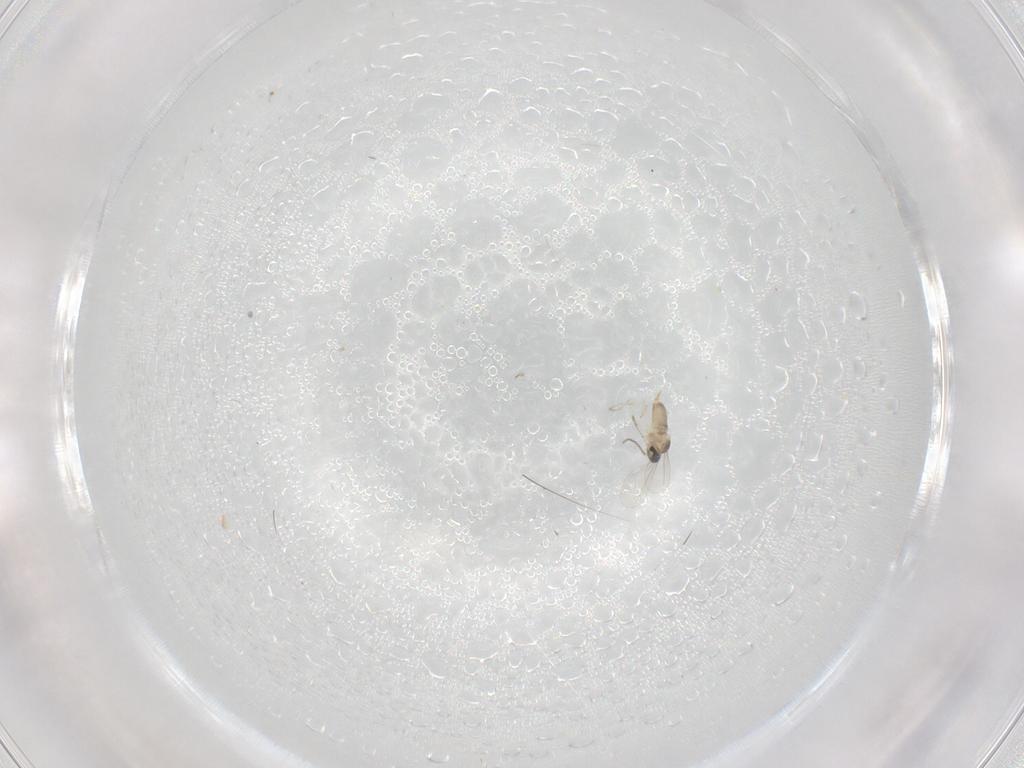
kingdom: Animalia
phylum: Arthropoda
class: Insecta
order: Diptera
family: Cecidomyiidae
